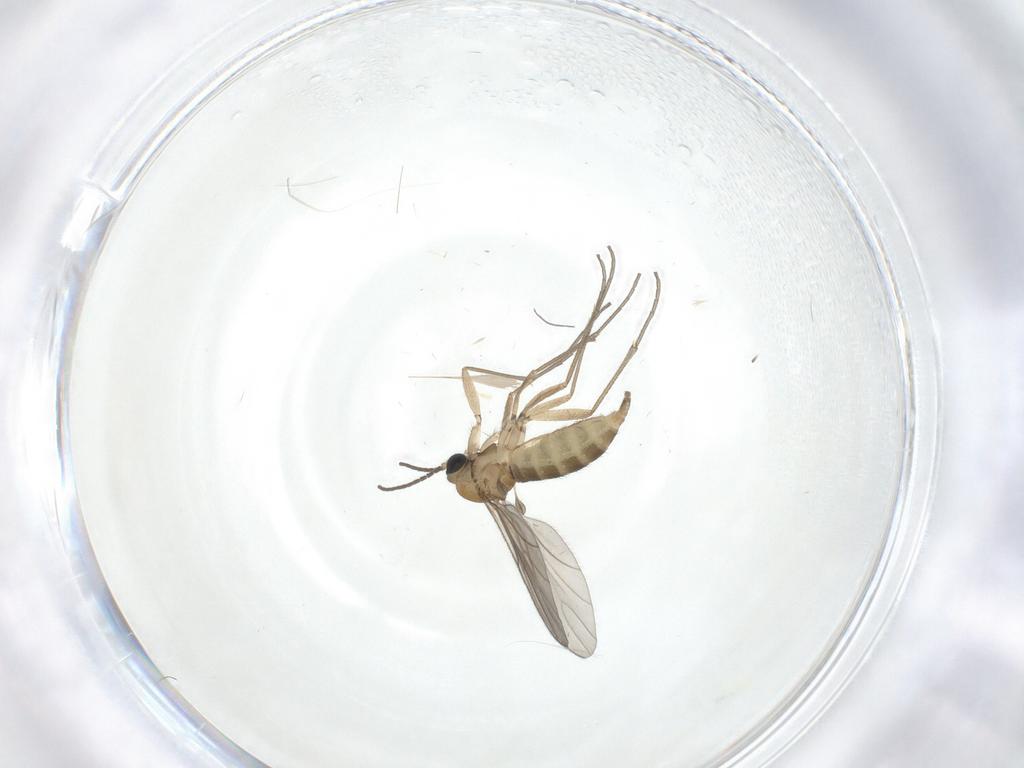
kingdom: Animalia
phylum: Arthropoda
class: Insecta
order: Diptera
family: Sciaridae
